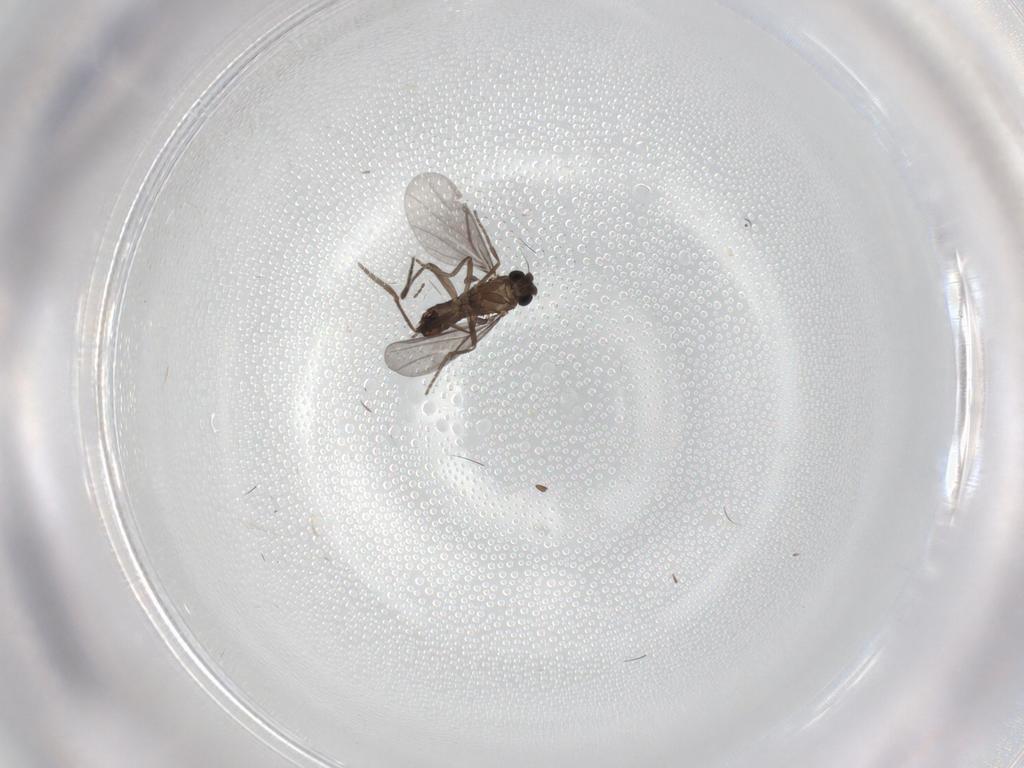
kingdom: Animalia
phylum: Arthropoda
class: Insecta
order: Diptera
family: Phoridae
